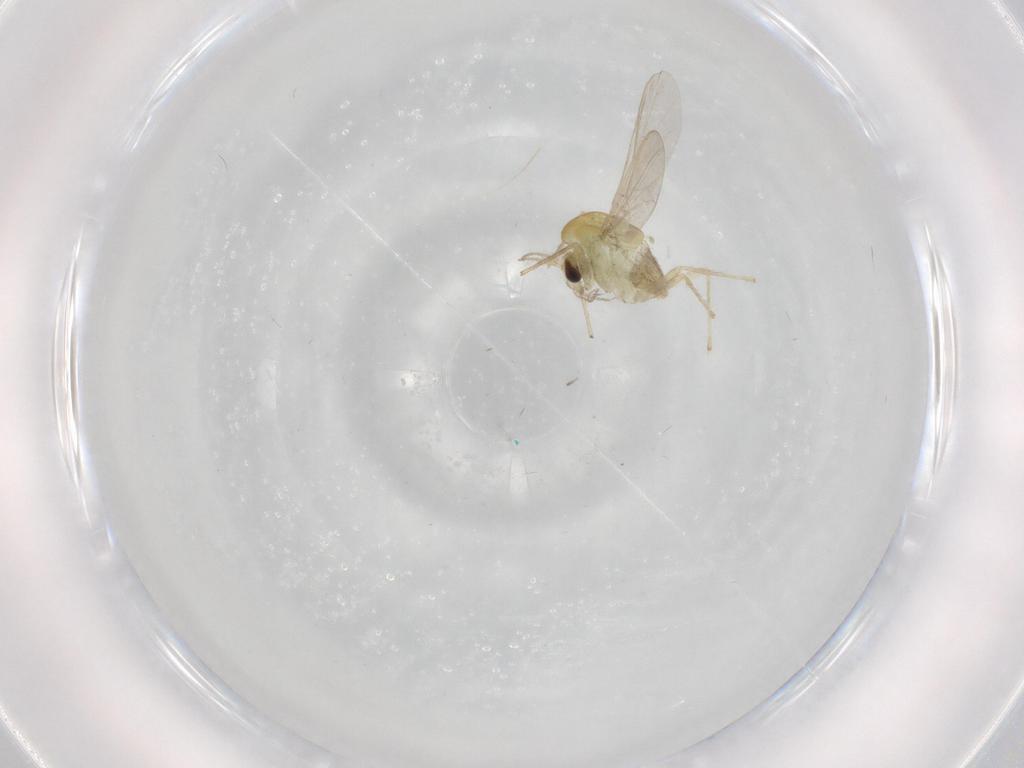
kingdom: Animalia
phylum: Arthropoda
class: Insecta
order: Diptera
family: Chironomidae
